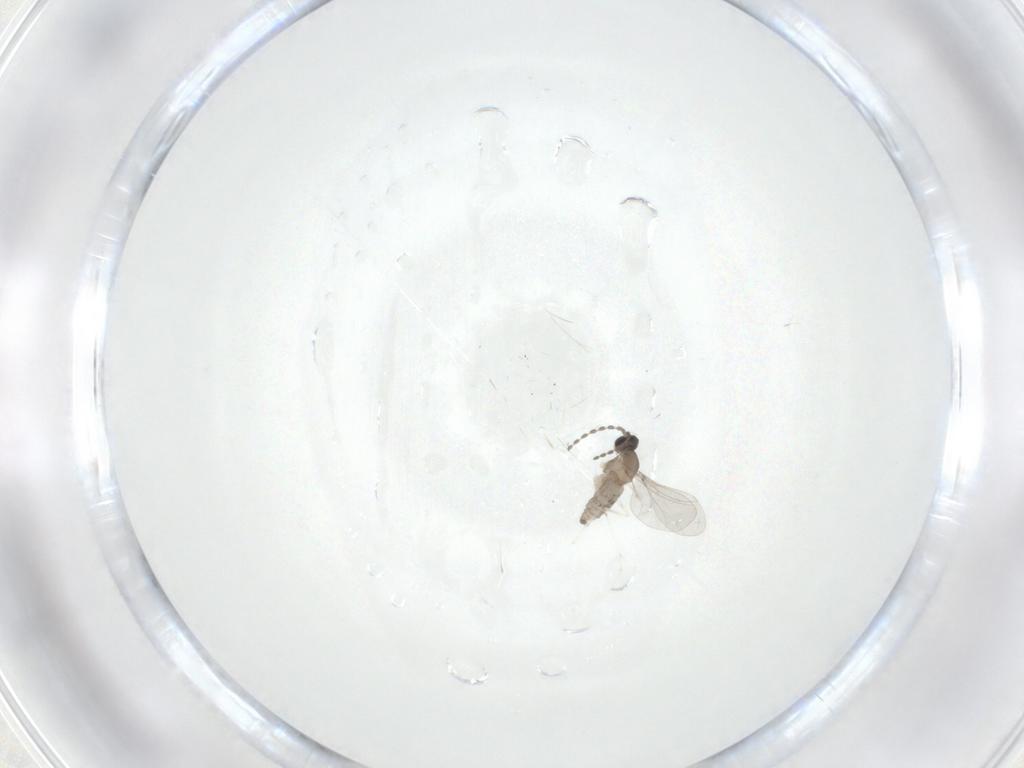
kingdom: Animalia
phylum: Arthropoda
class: Insecta
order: Diptera
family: Cecidomyiidae
